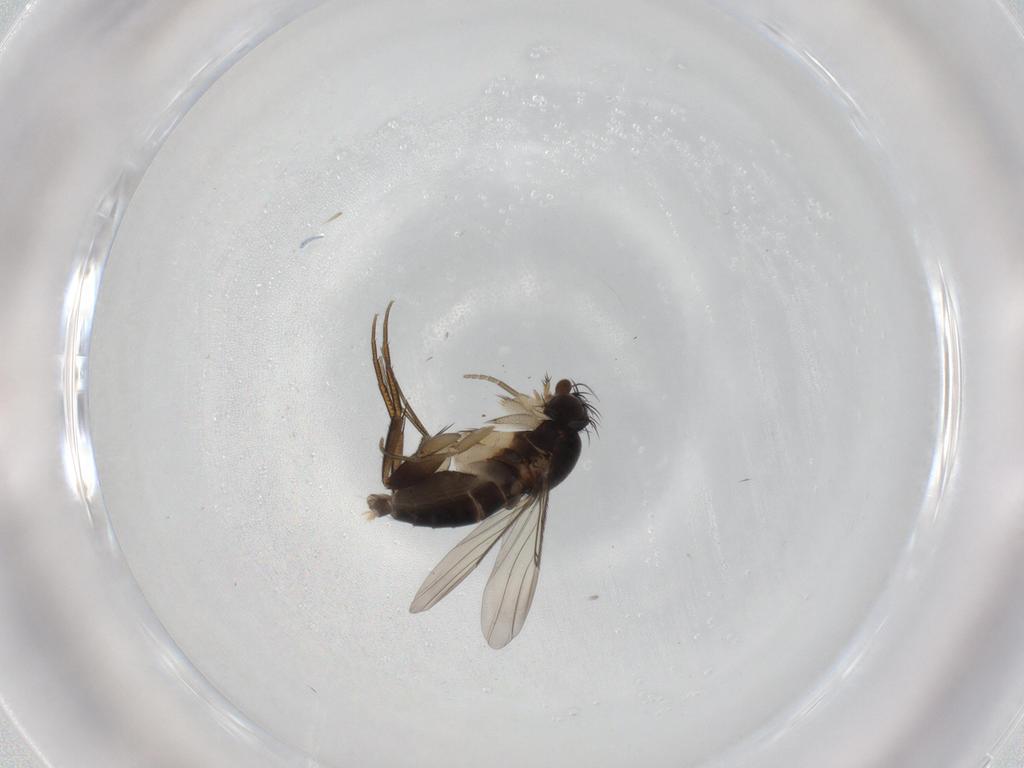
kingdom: Animalia
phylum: Arthropoda
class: Insecta
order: Diptera
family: Phoridae
